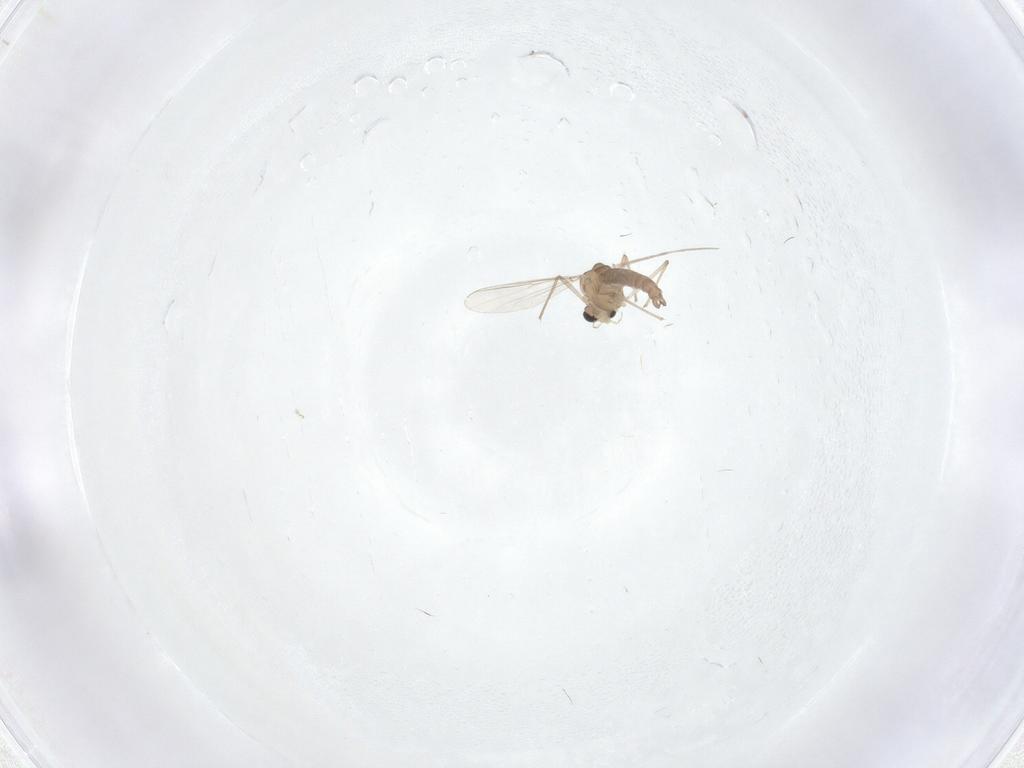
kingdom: Animalia
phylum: Arthropoda
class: Insecta
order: Diptera
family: Chironomidae
